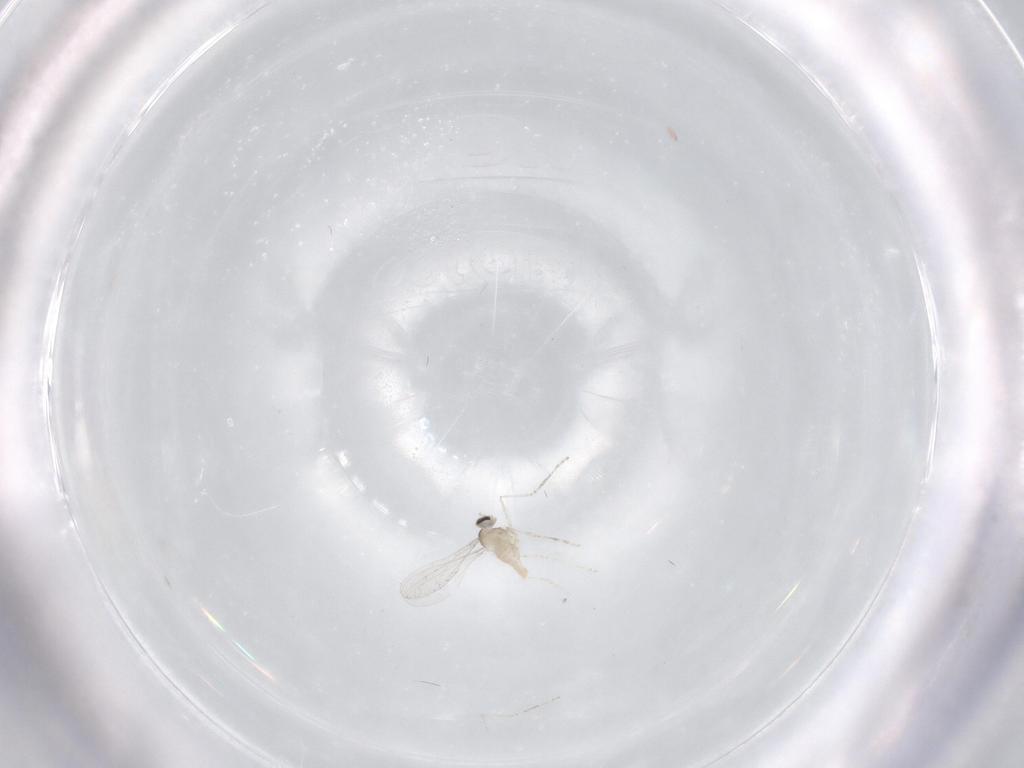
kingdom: Animalia
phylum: Arthropoda
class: Insecta
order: Diptera
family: Cecidomyiidae
